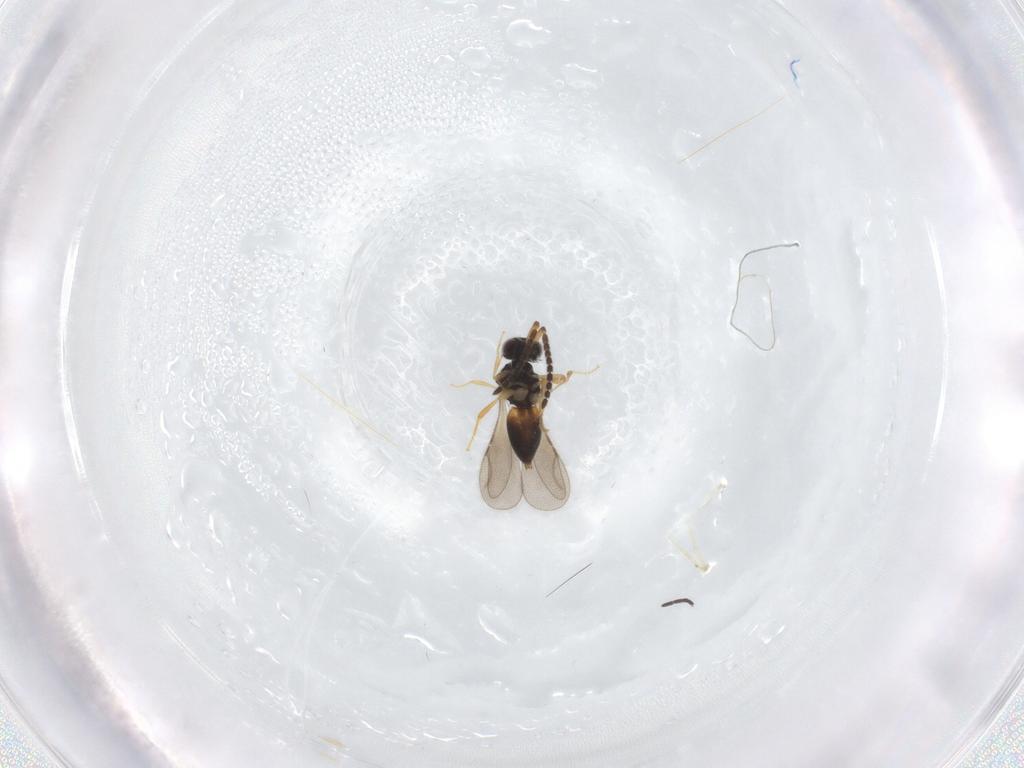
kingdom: Animalia
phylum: Arthropoda
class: Insecta
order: Hymenoptera
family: Ceraphronidae
